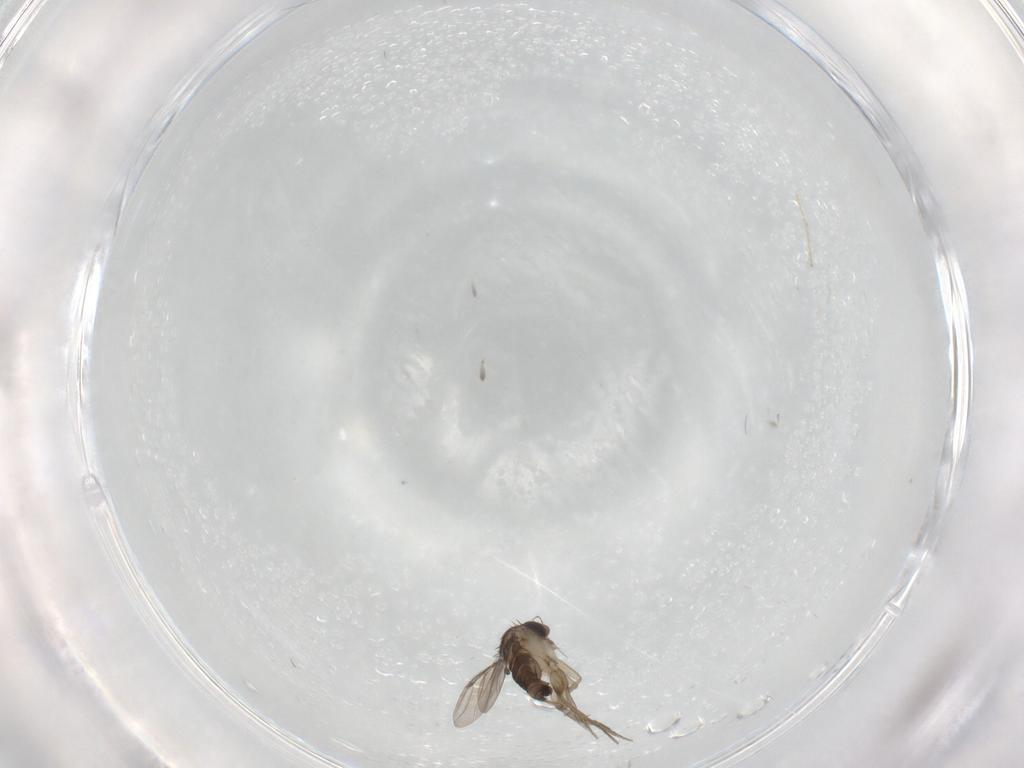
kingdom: Animalia
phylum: Arthropoda
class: Insecta
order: Diptera
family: Phoridae
